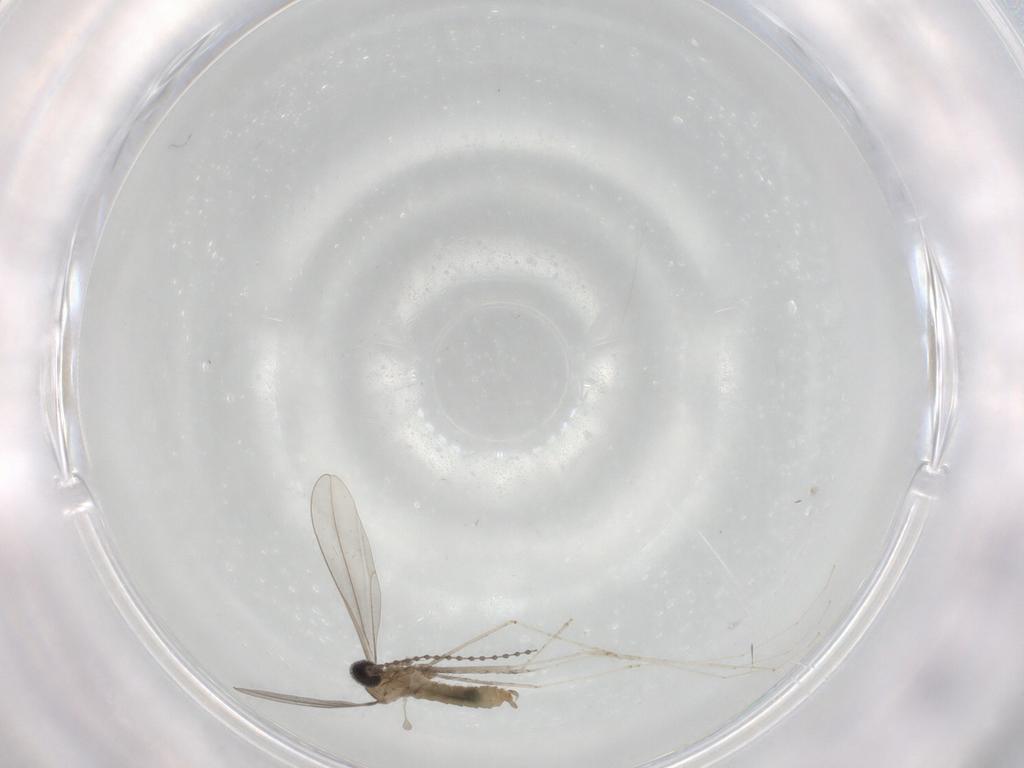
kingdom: Animalia
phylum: Arthropoda
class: Insecta
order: Diptera
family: Cecidomyiidae
